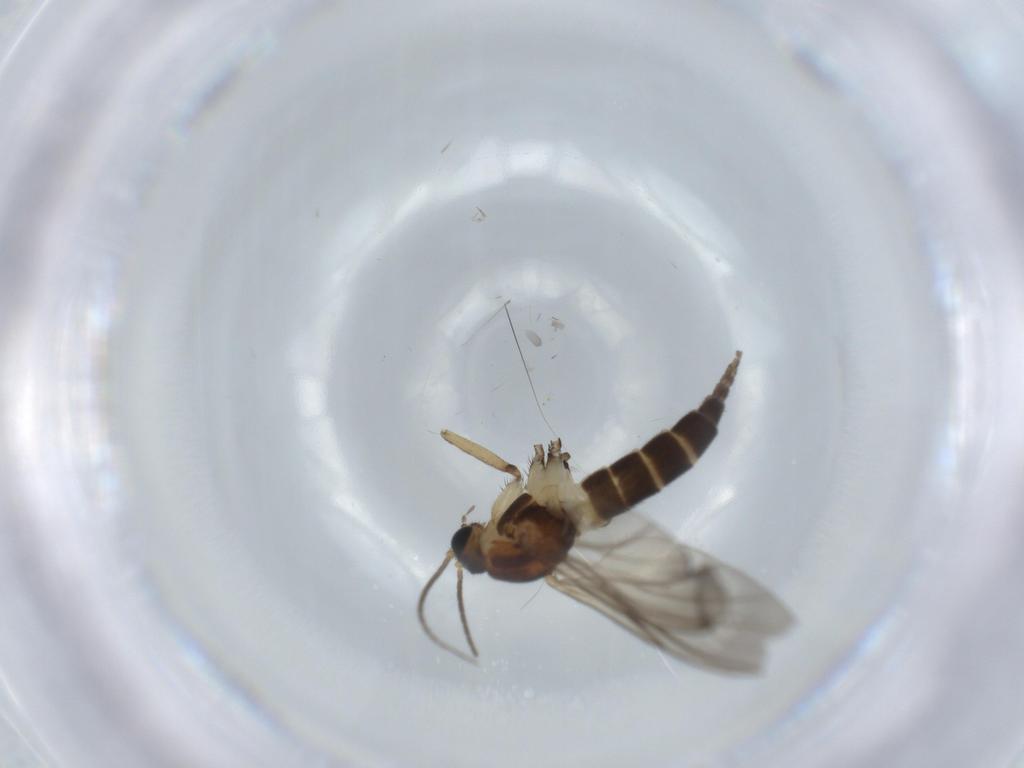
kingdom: Animalia
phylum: Arthropoda
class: Insecta
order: Diptera
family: Sciaridae
